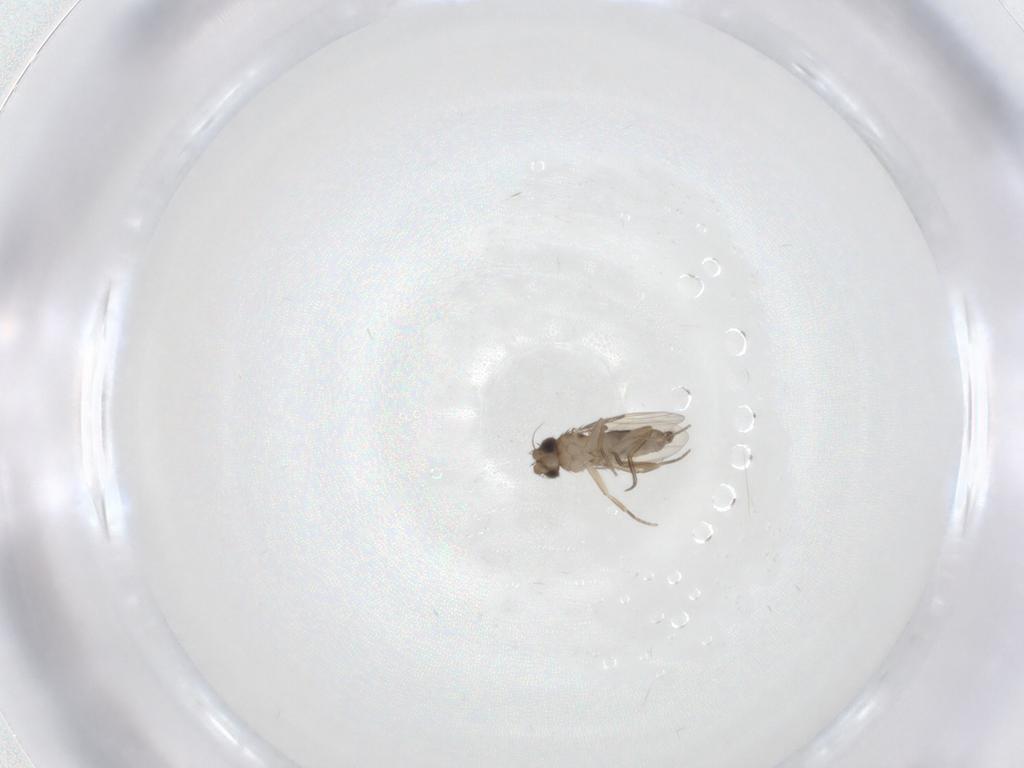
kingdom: Animalia
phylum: Arthropoda
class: Insecta
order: Diptera
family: Phoridae
